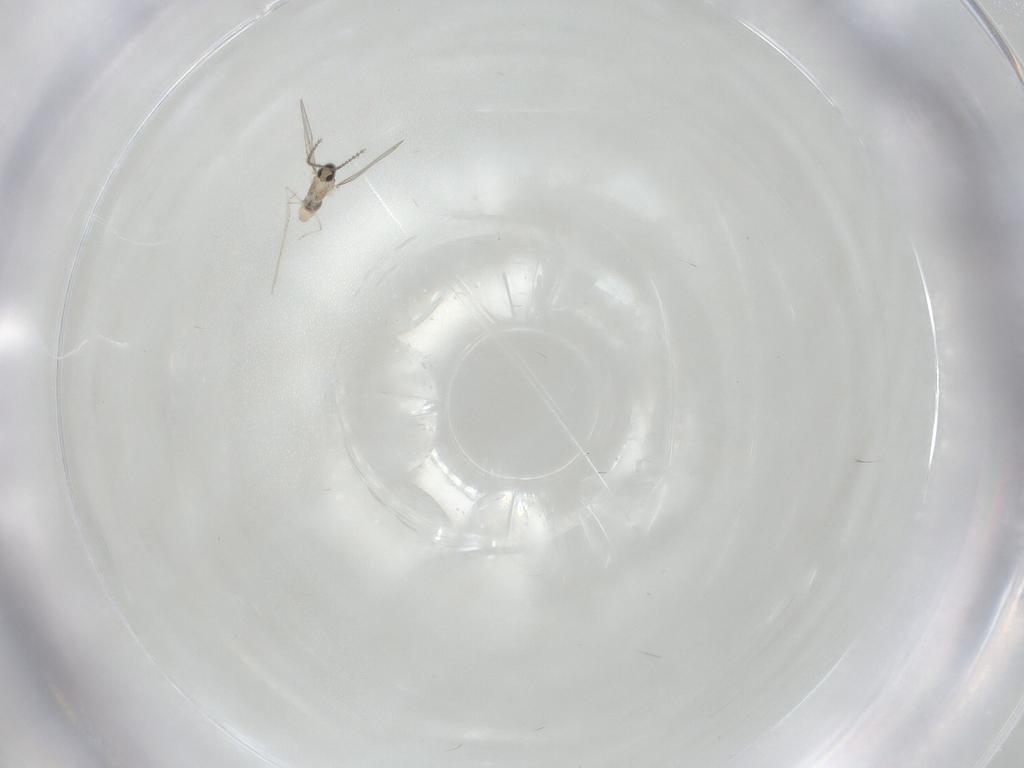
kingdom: Animalia
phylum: Arthropoda
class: Insecta
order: Diptera
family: Cecidomyiidae
